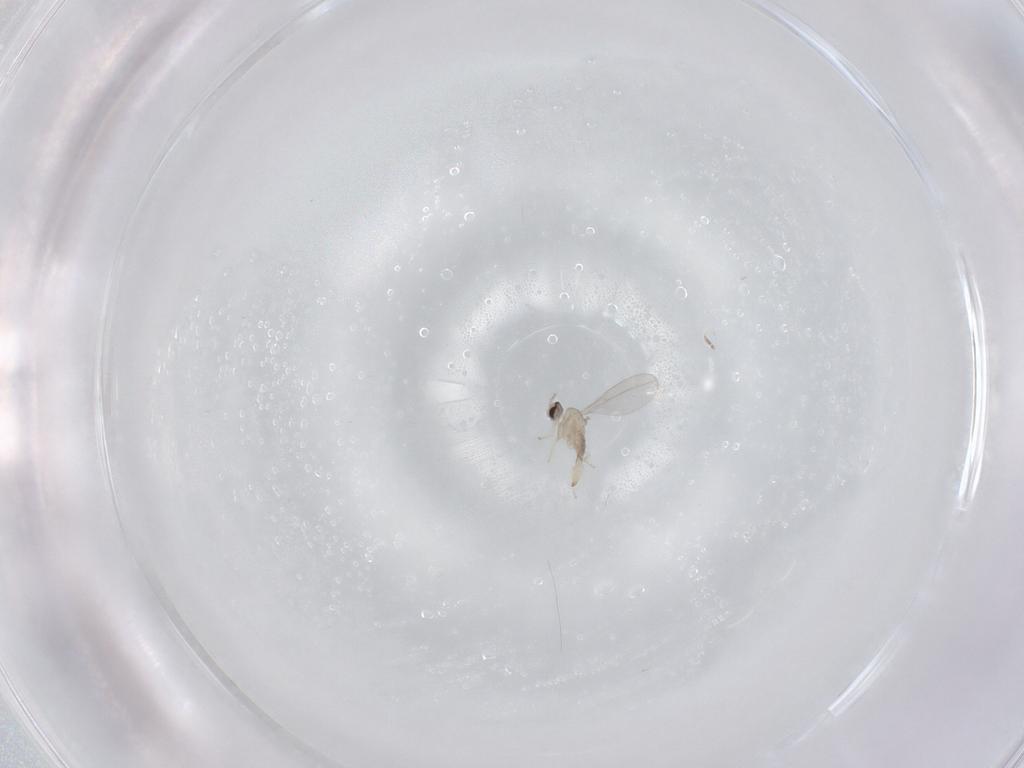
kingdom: Animalia
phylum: Arthropoda
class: Insecta
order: Diptera
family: Cecidomyiidae
